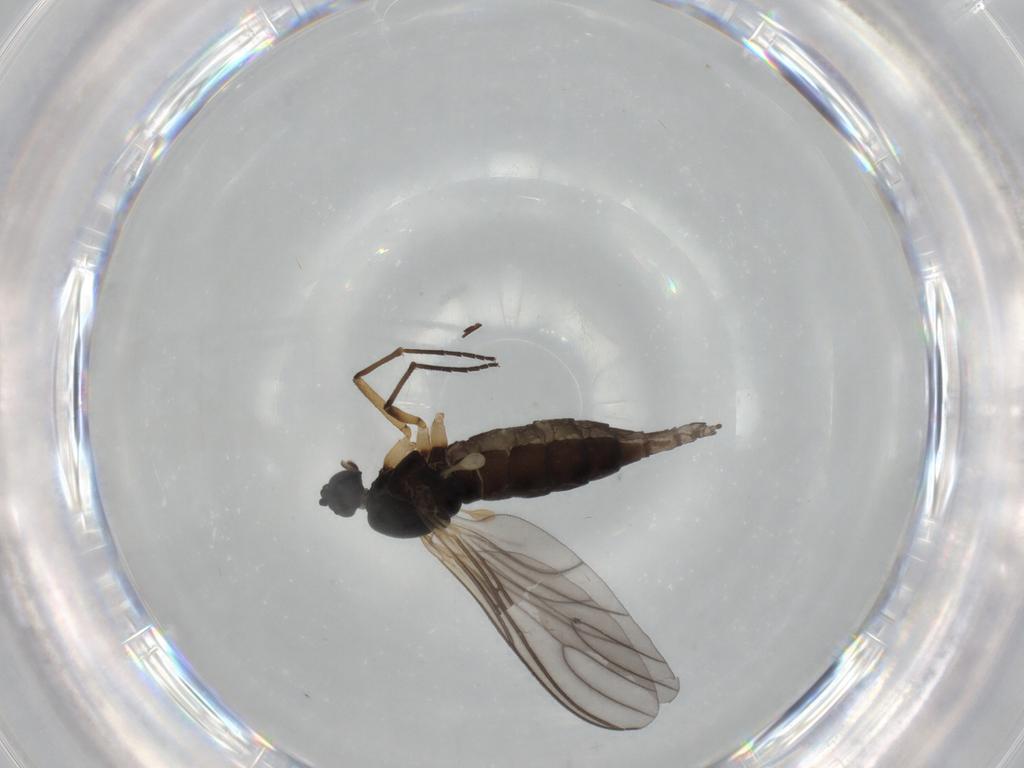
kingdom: Animalia
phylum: Arthropoda
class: Insecta
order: Diptera
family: Sciaridae
